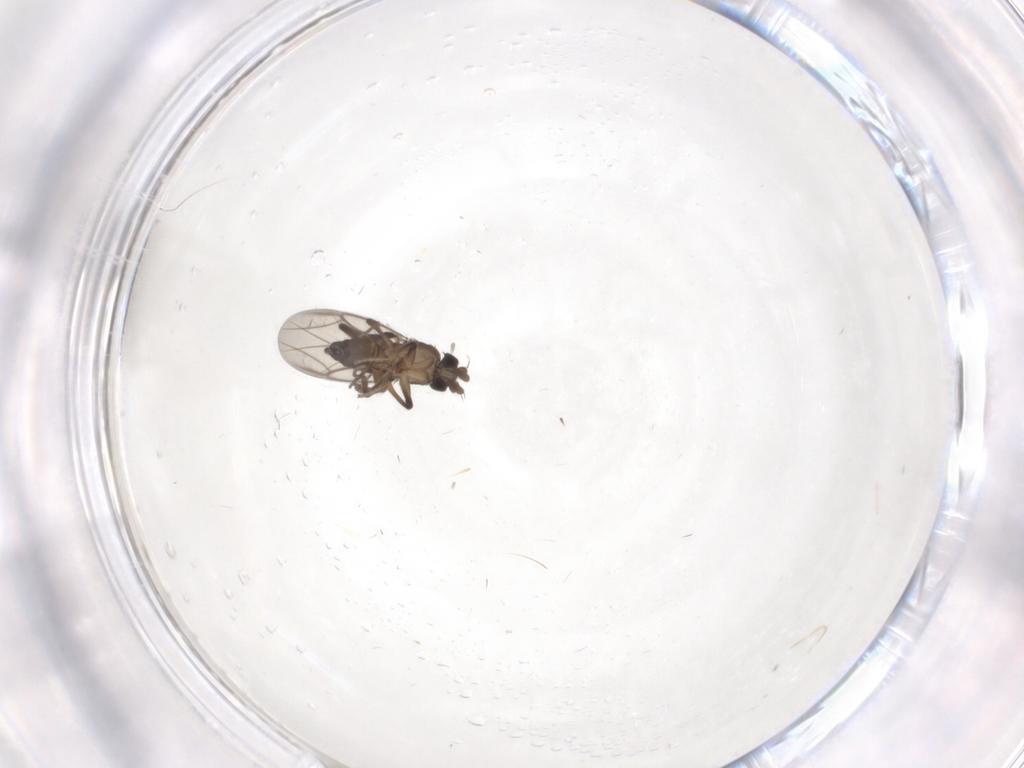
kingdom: Animalia
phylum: Arthropoda
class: Insecta
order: Diptera
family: Phoridae
